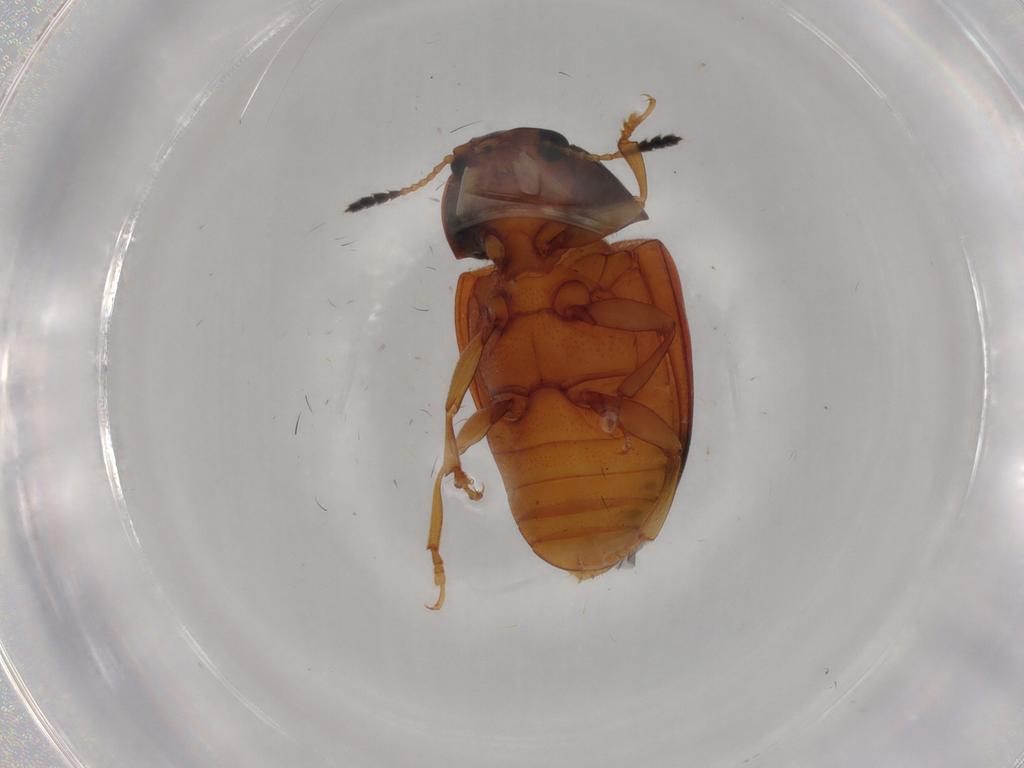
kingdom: Animalia
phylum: Arthropoda
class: Insecta
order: Coleoptera
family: Erotylidae
